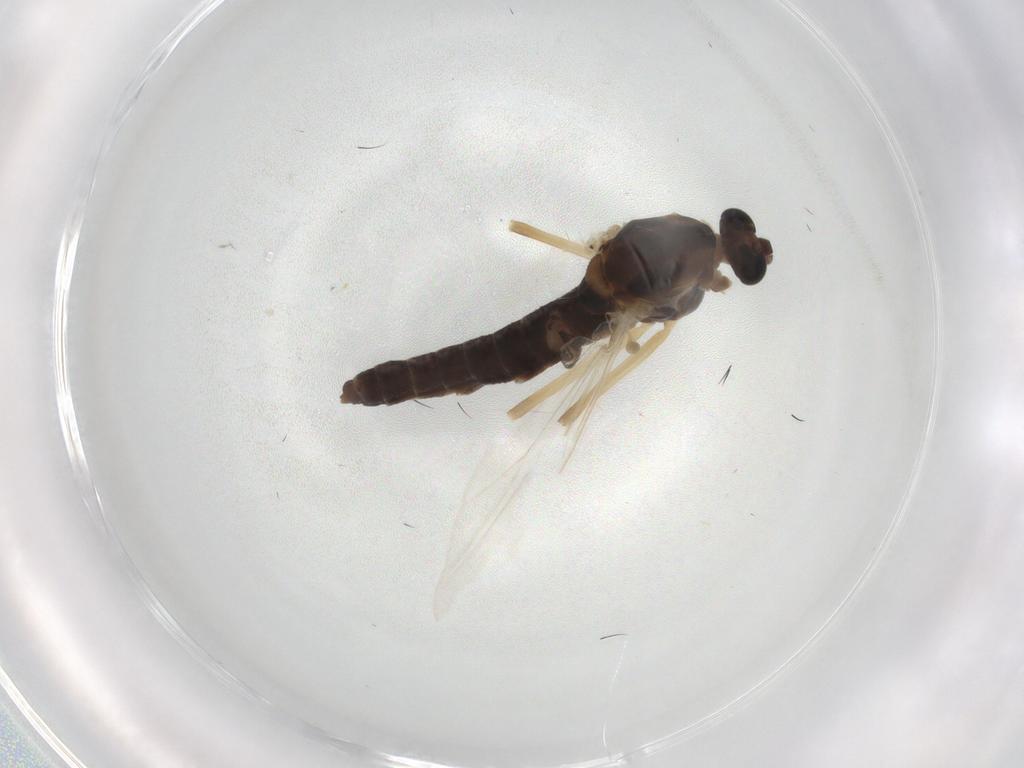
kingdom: Animalia
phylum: Arthropoda
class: Insecta
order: Diptera
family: Chironomidae
